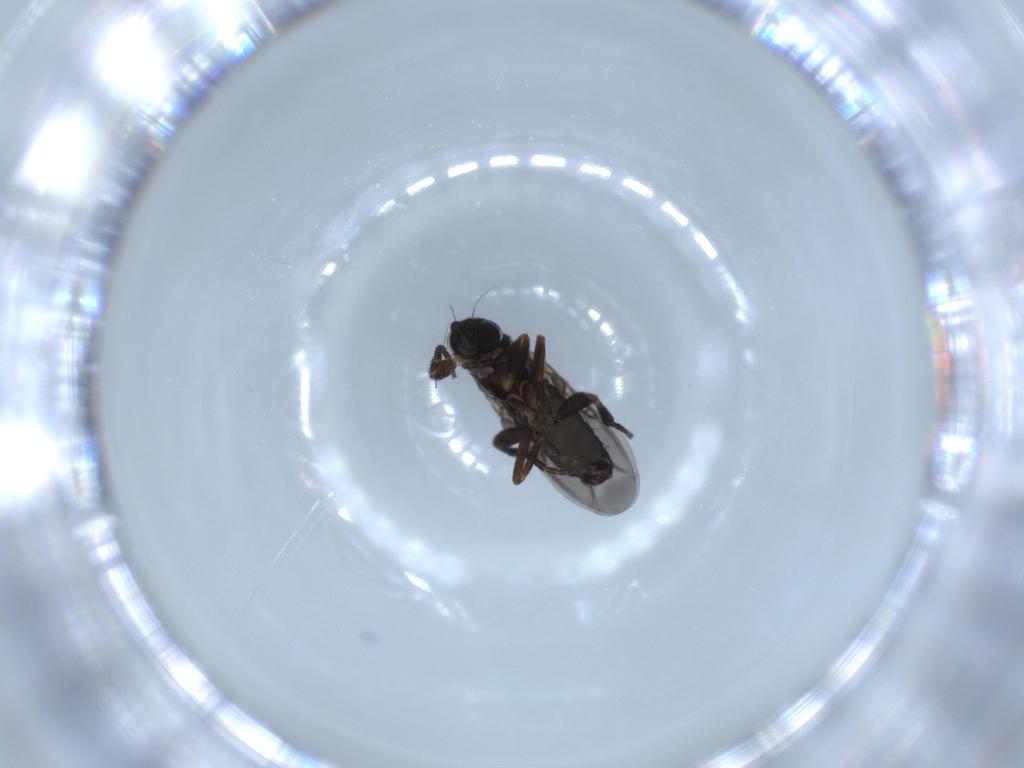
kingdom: Animalia
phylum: Arthropoda
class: Insecta
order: Diptera
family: Phoridae
